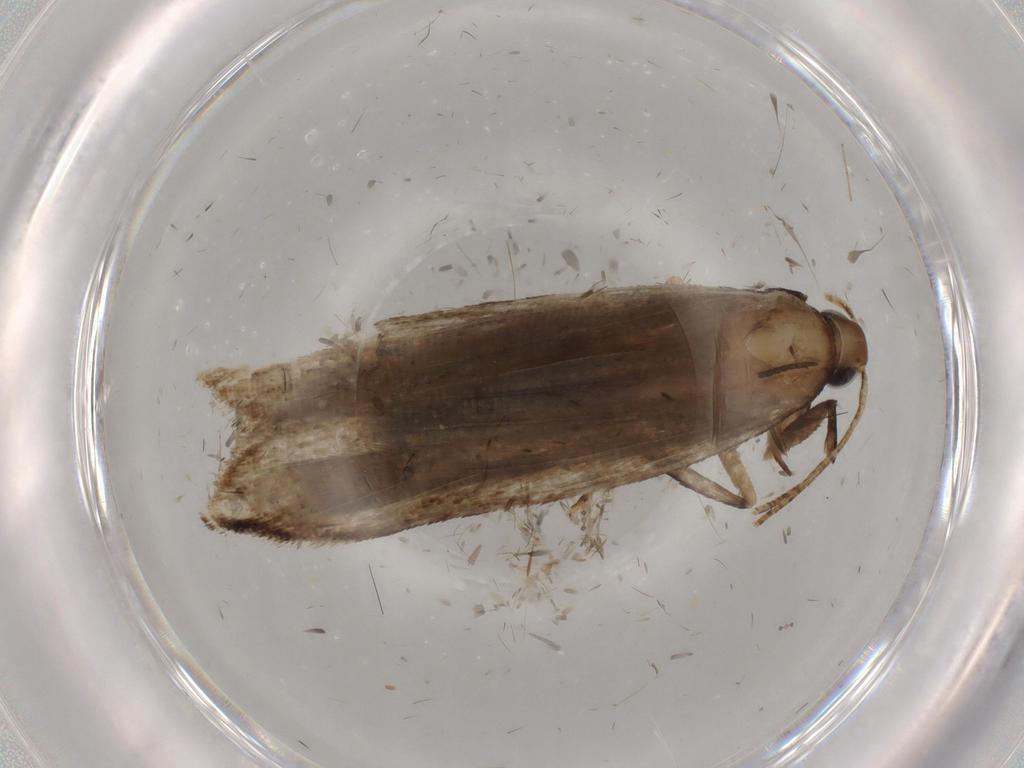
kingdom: Animalia
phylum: Arthropoda
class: Insecta
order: Lepidoptera
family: Gelechiidae
